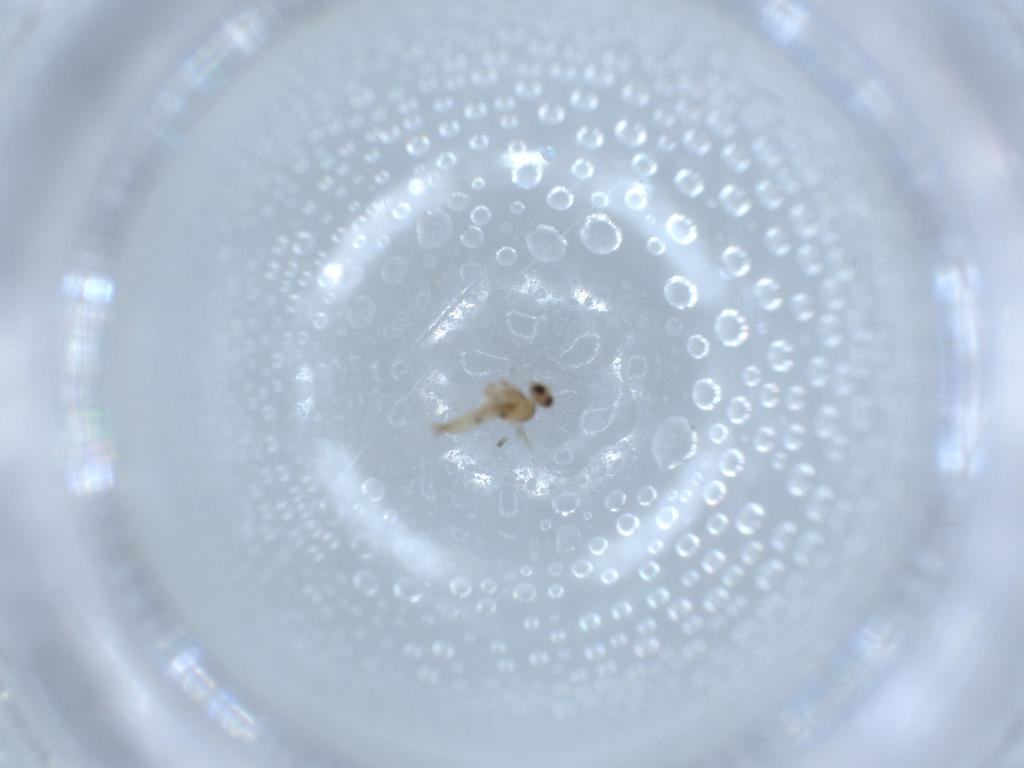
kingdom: Animalia
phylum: Arthropoda
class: Insecta
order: Diptera
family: Cecidomyiidae
